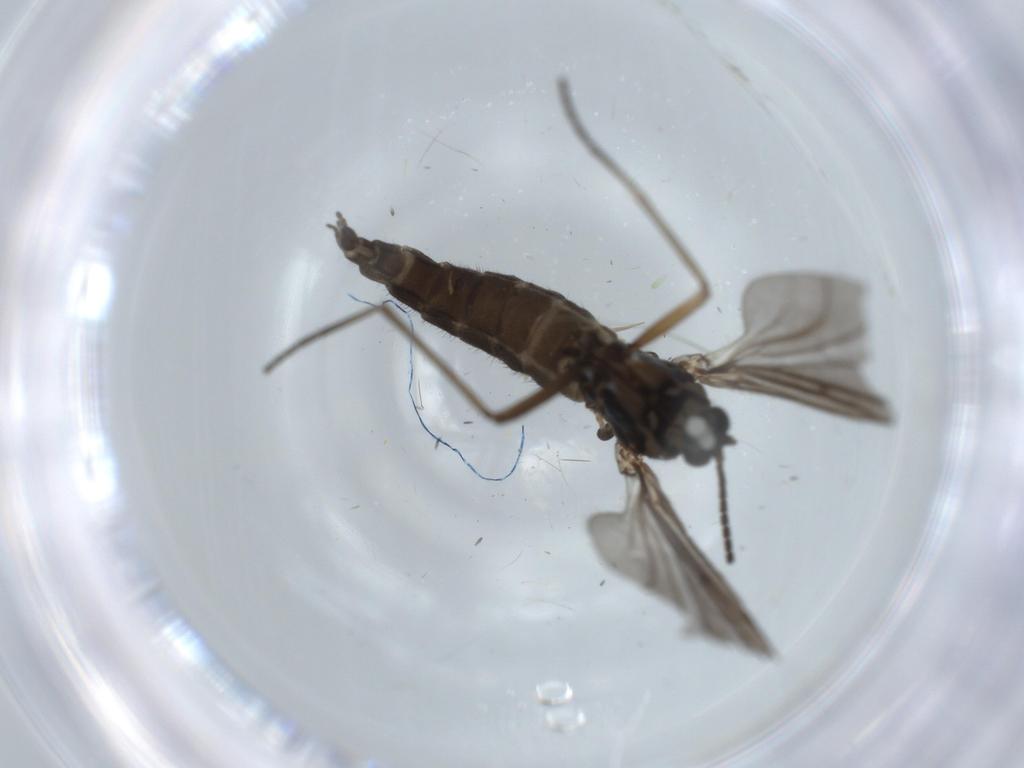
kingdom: Animalia
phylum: Arthropoda
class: Insecta
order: Diptera
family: Sciaridae
